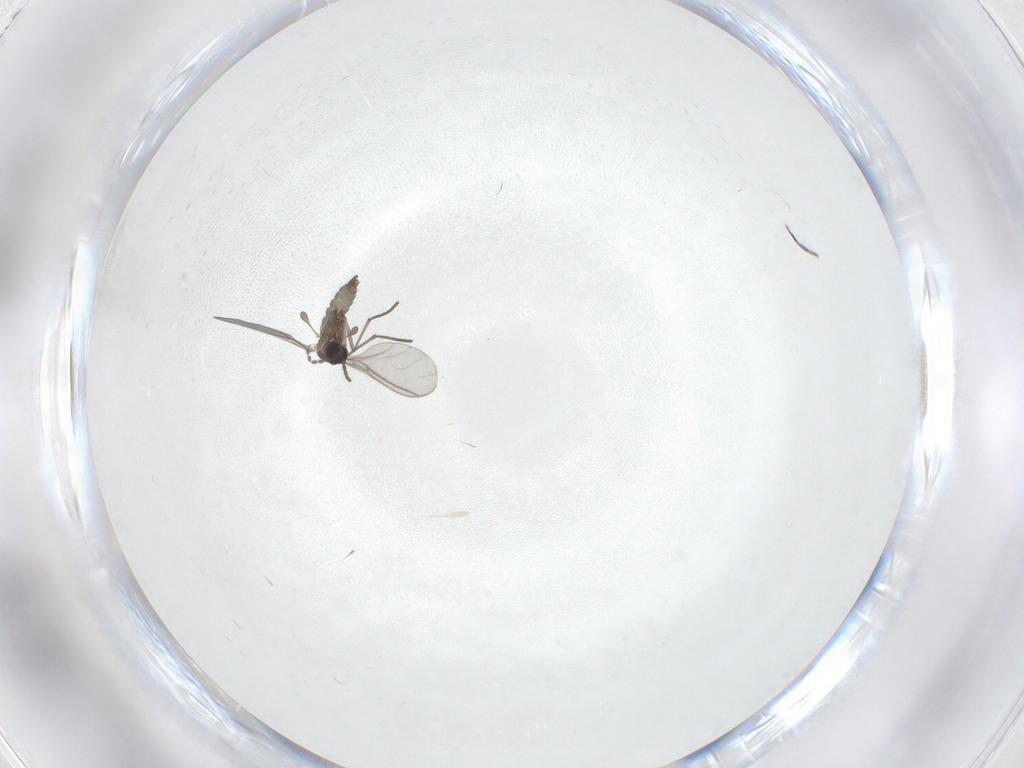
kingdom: Animalia
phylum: Arthropoda
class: Insecta
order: Diptera
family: Sciaridae
